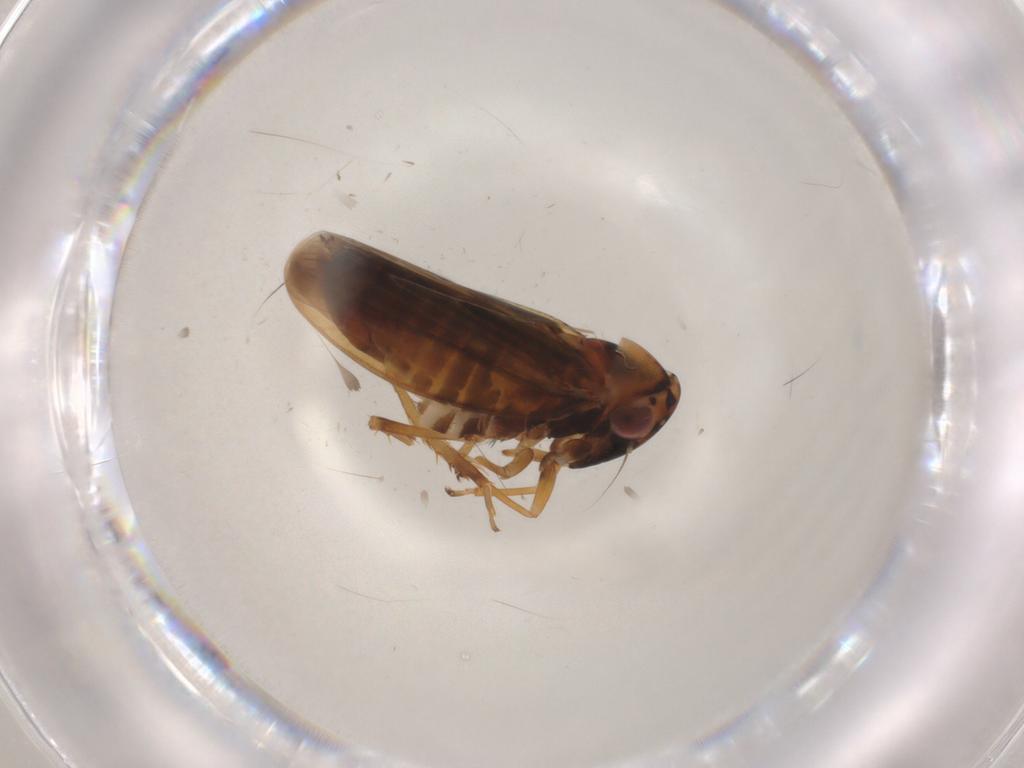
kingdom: Animalia
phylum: Arthropoda
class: Insecta
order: Hemiptera
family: Cicadellidae
